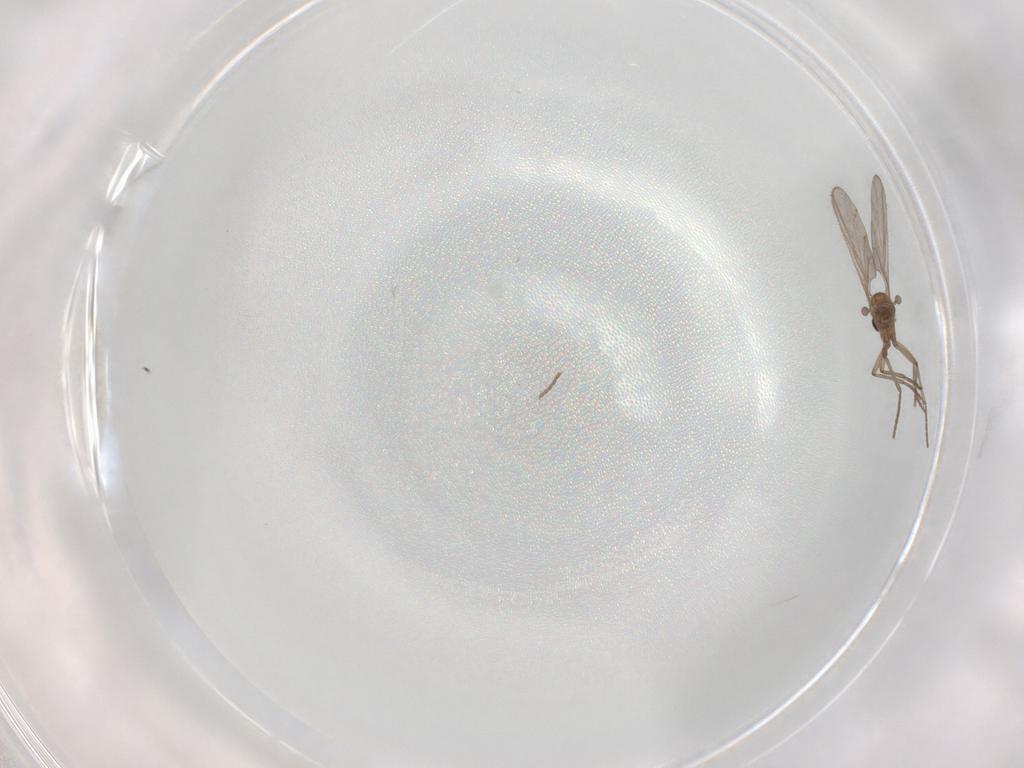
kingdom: Animalia
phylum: Arthropoda
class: Insecta
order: Diptera
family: Sciaridae
